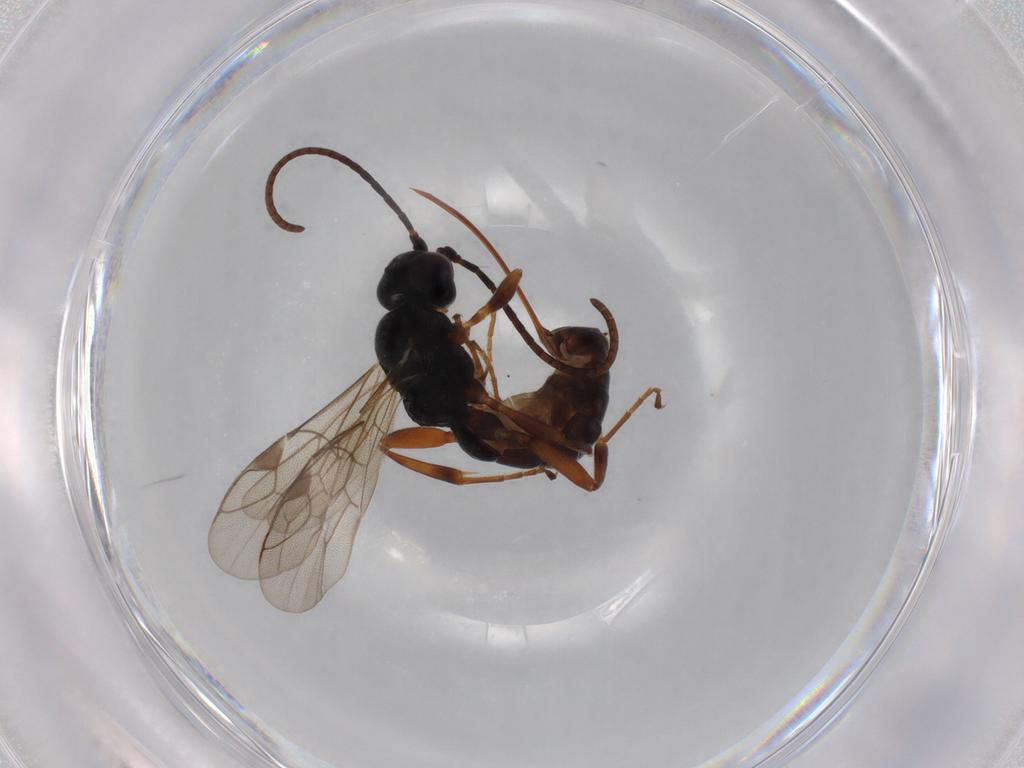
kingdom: Animalia
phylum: Arthropoda
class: Insecta
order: Hymenoptera
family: Ichneumonidae
